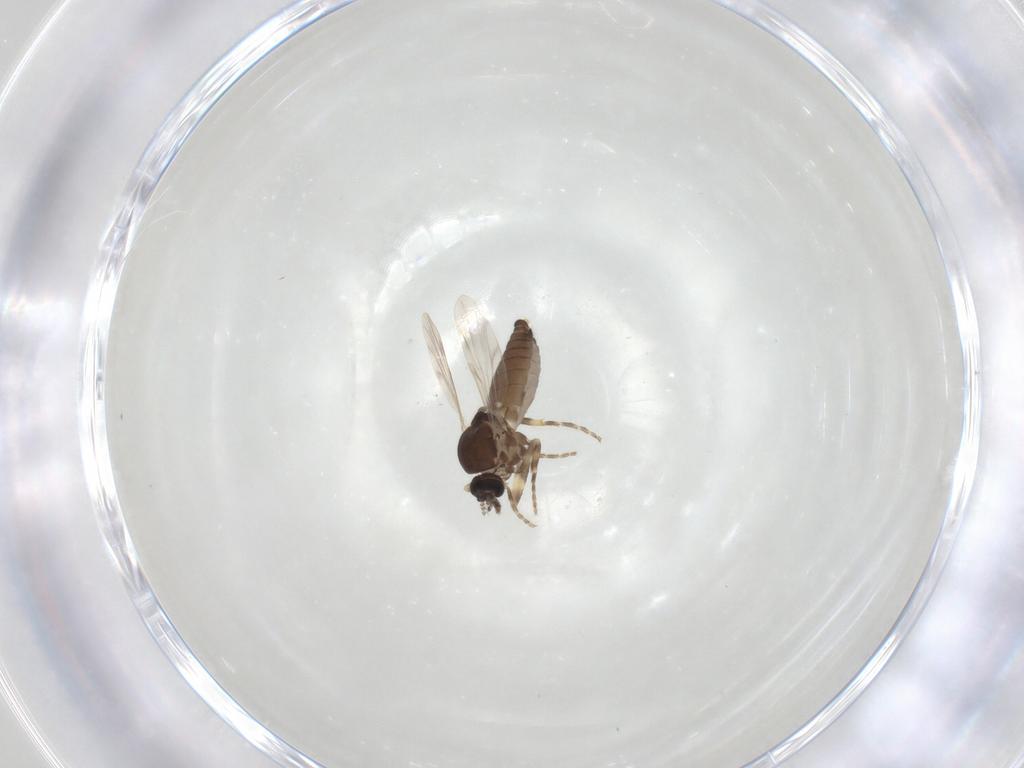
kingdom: Animalia
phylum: Arthropoda
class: Insecta
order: Diptera
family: Ceratopogonidae
